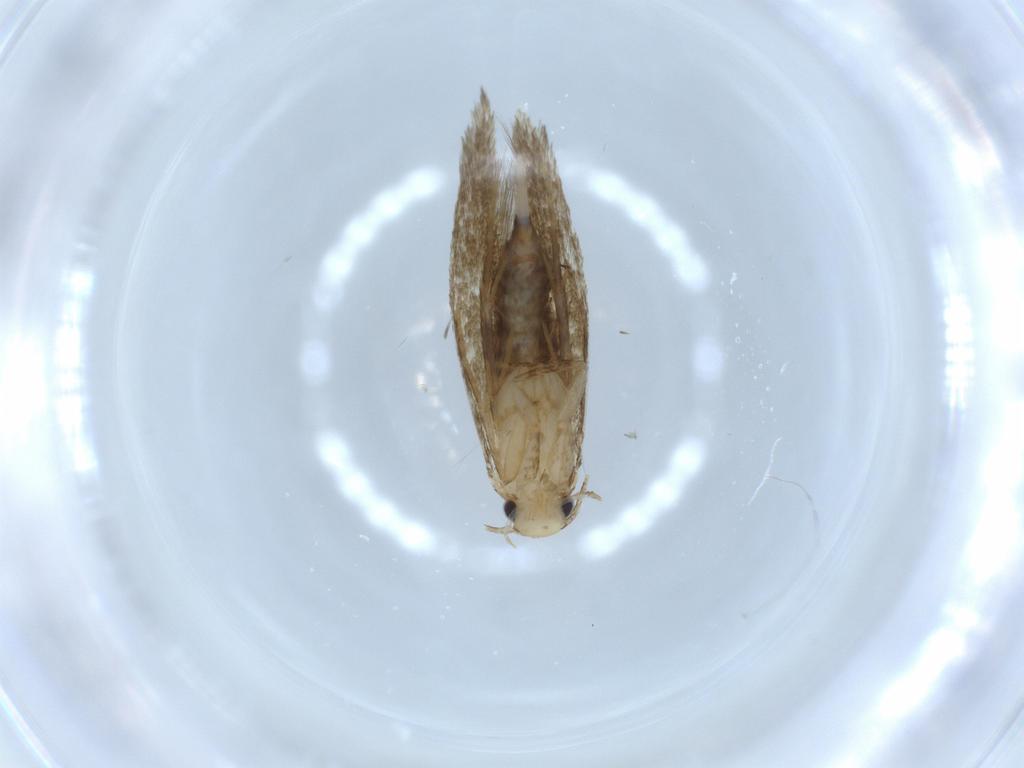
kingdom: Animalia
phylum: Arthropoda
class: Insecta
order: Lepidoptera
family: Tineidae
